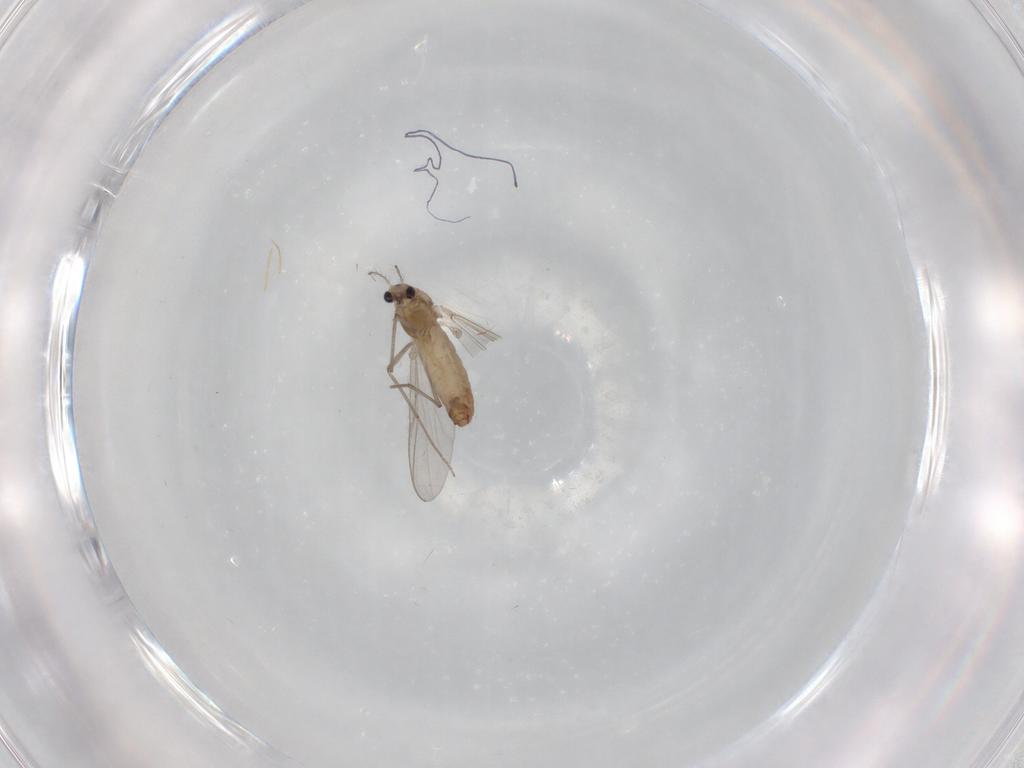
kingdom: Animalia
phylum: Arthropoda
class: Insecta
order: Diptera
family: Chironomidae
